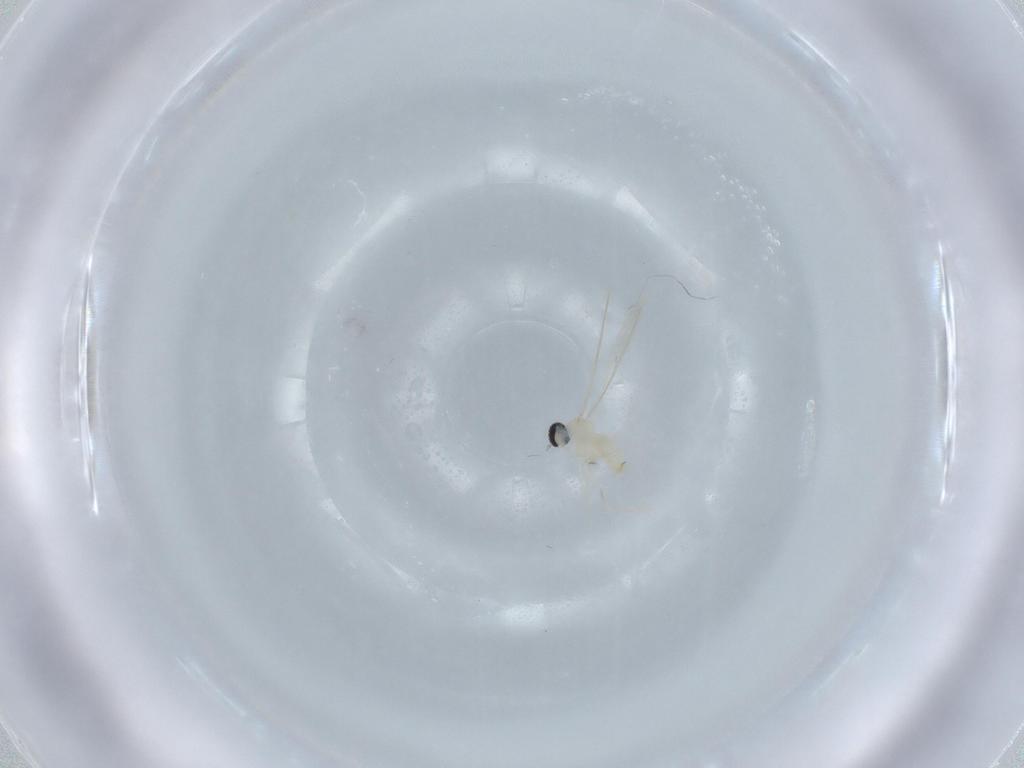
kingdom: Animalia
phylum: Arthropoda
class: Insecta
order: Diptera
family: Cecidomyiidae
